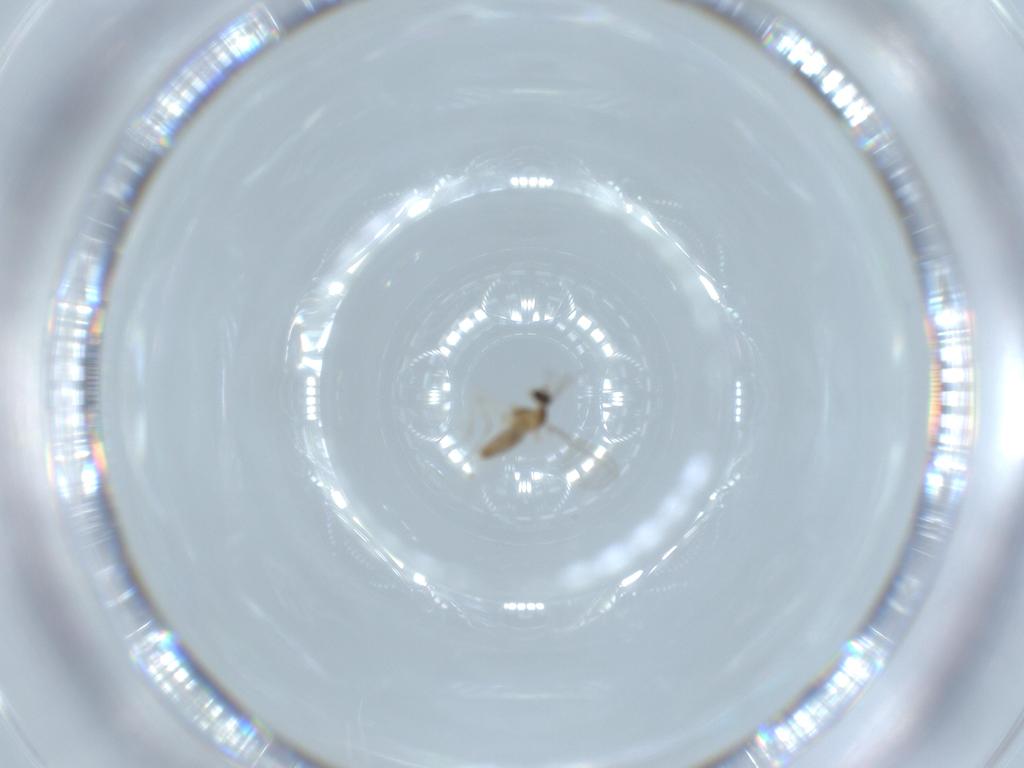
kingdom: Animalia
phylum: Arthropoda
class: Insecta
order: Diptera
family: Cecidomyiidae
